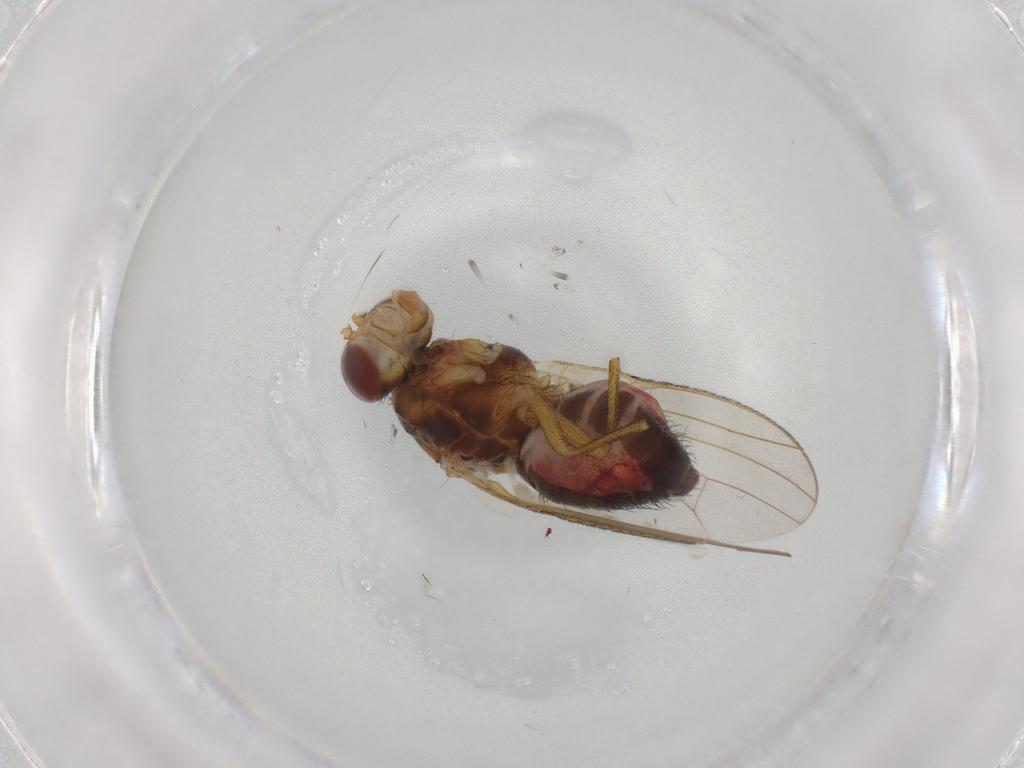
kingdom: Animalia
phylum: Arthropoda
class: Insecta
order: Diptera
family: Heleomyzidae
